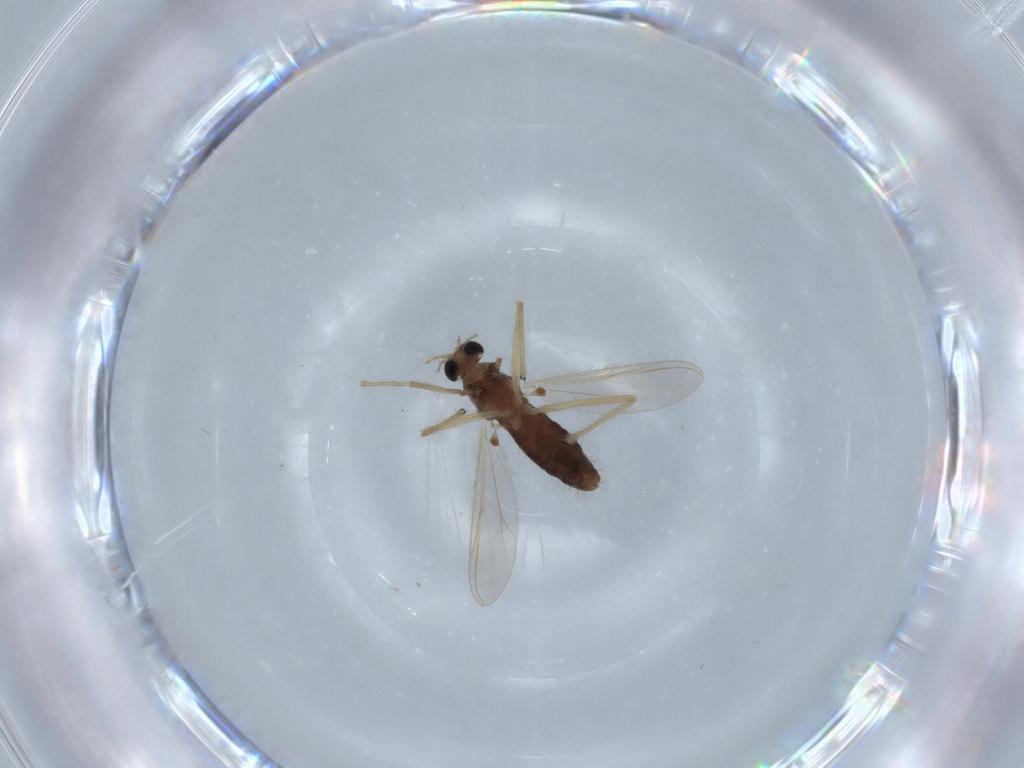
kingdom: Animalia
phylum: Arthropoda
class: Insecta
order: Diptera
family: Chironomidae
